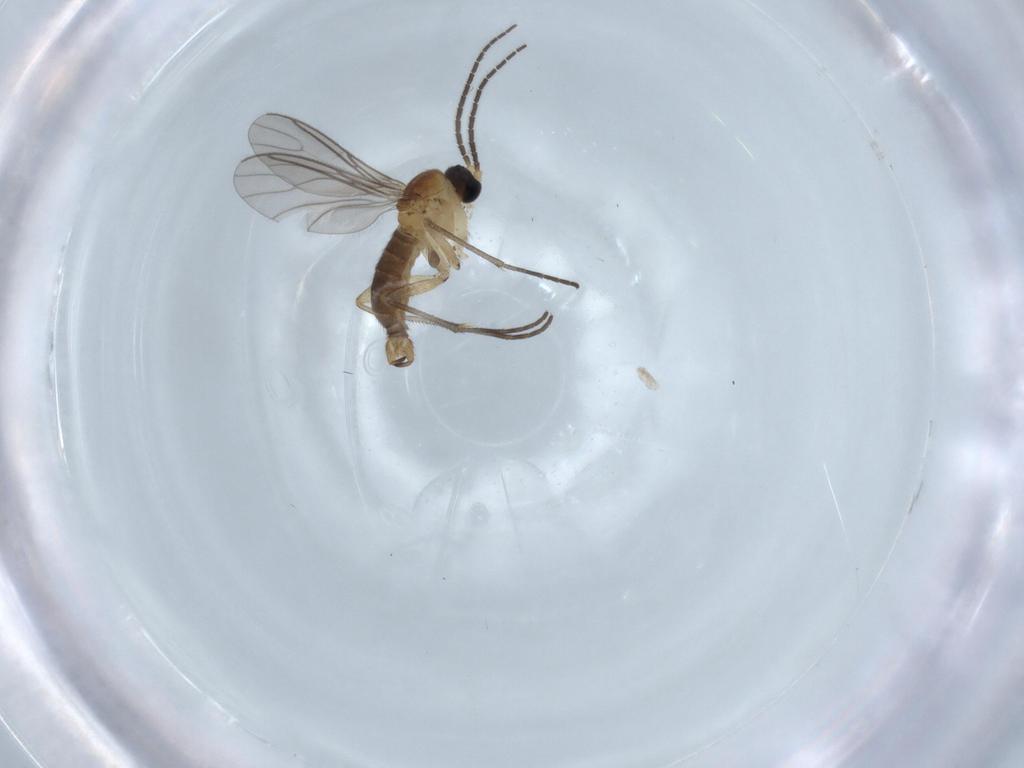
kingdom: Animalia
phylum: Arthropoda
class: Insecta
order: Diptera
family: Sciaridae
